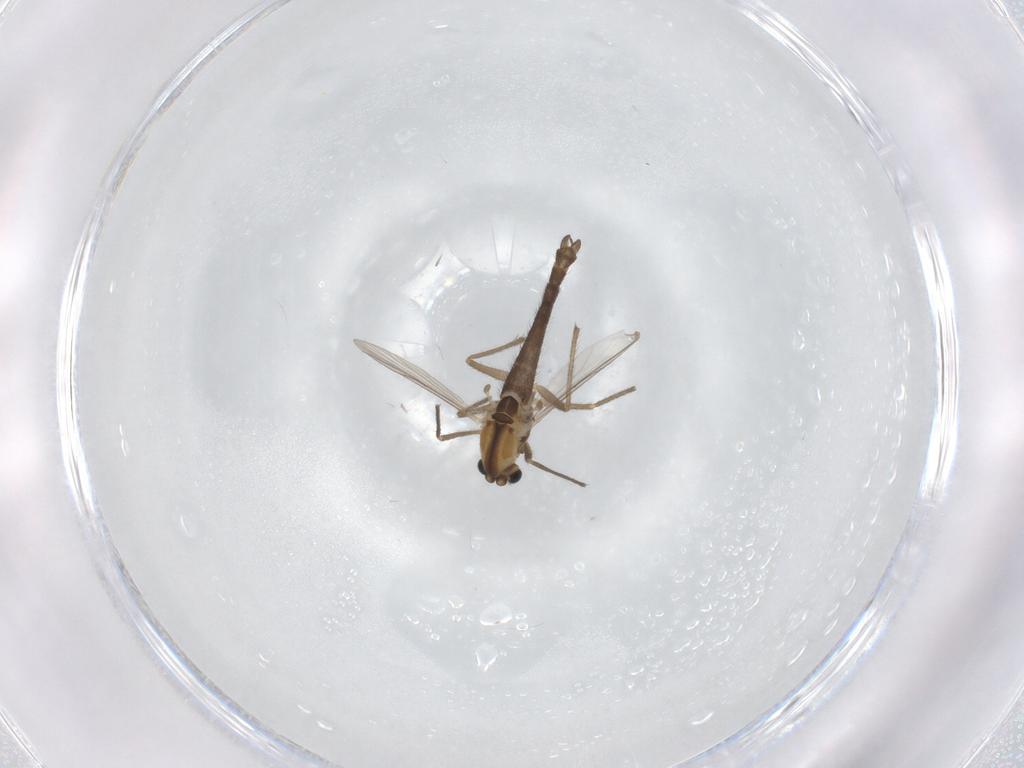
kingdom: Animalia
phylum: Arthropoda
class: Insecta
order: Diptera
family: Chironomidae
